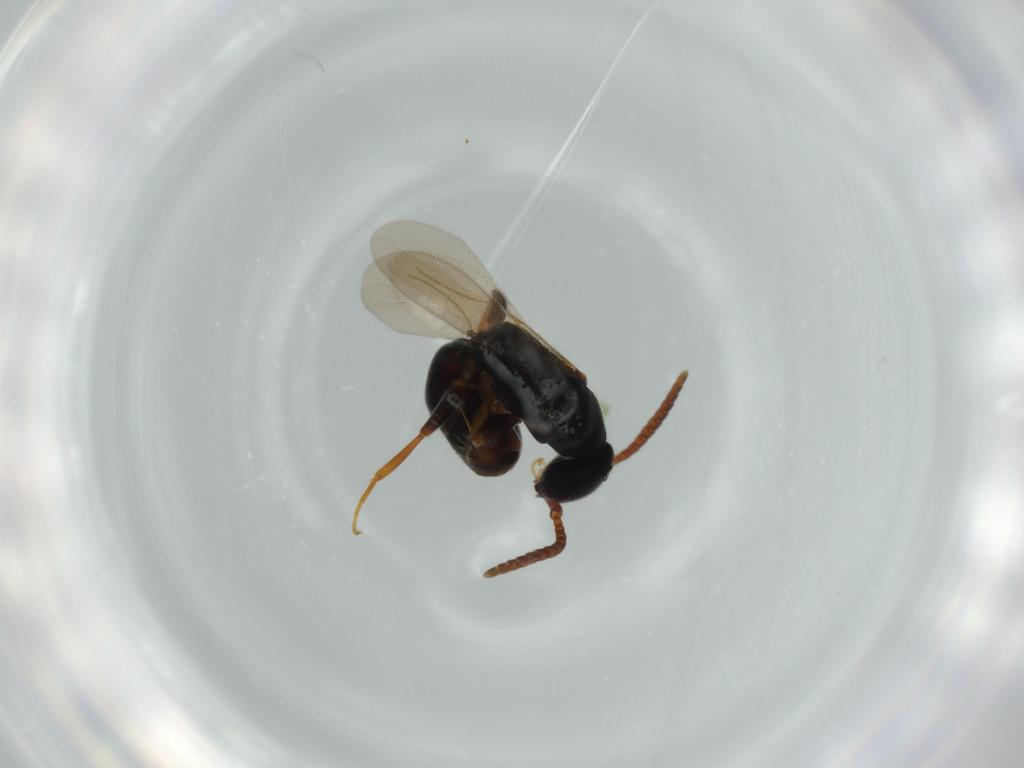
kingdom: Animalia
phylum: Arthropoda
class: Insecta
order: Hymenoptera
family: Bethylidae
